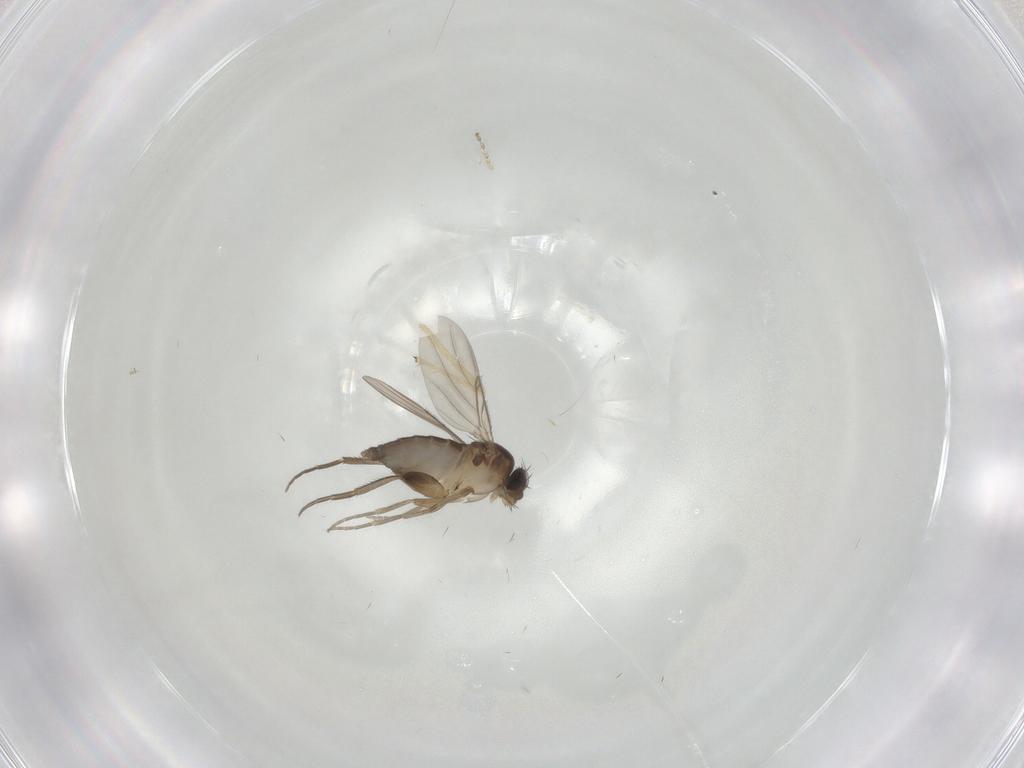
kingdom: Animalia
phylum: Arthropoda
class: Insecta
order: Diptera
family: Phoridae
